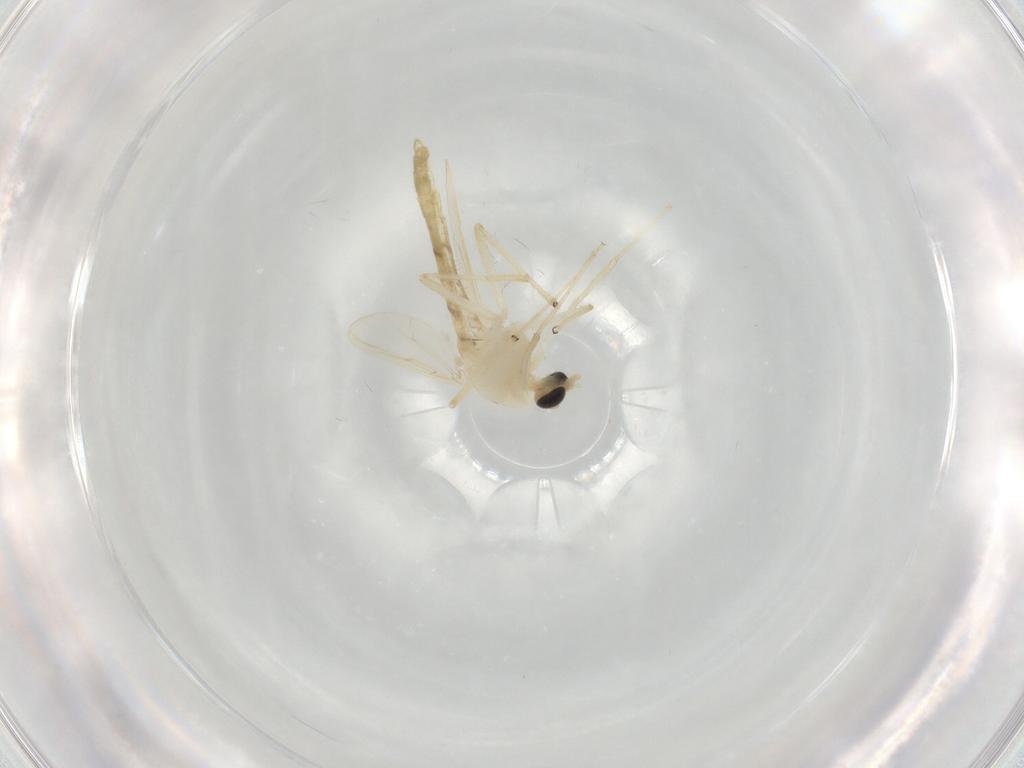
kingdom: Animalia
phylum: Arthropoda
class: Insecta
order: Diptera
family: Chironomidae
